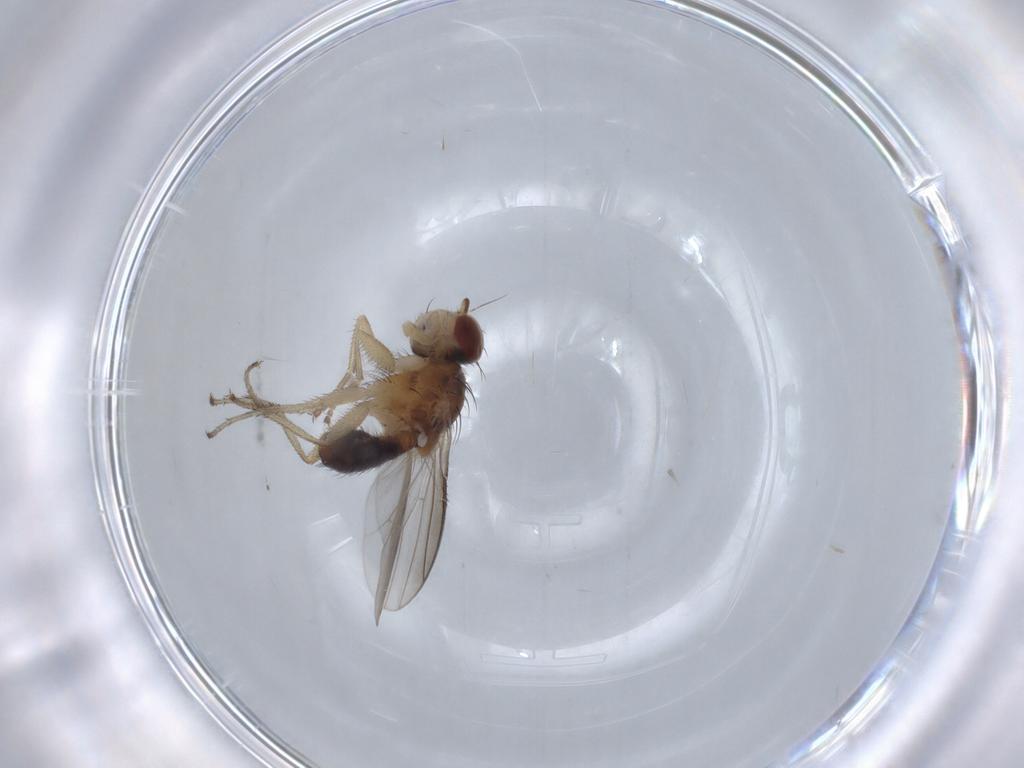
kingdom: Animalia
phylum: Arthropoda
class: Insecta
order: Diptera
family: Heleomyzidae
